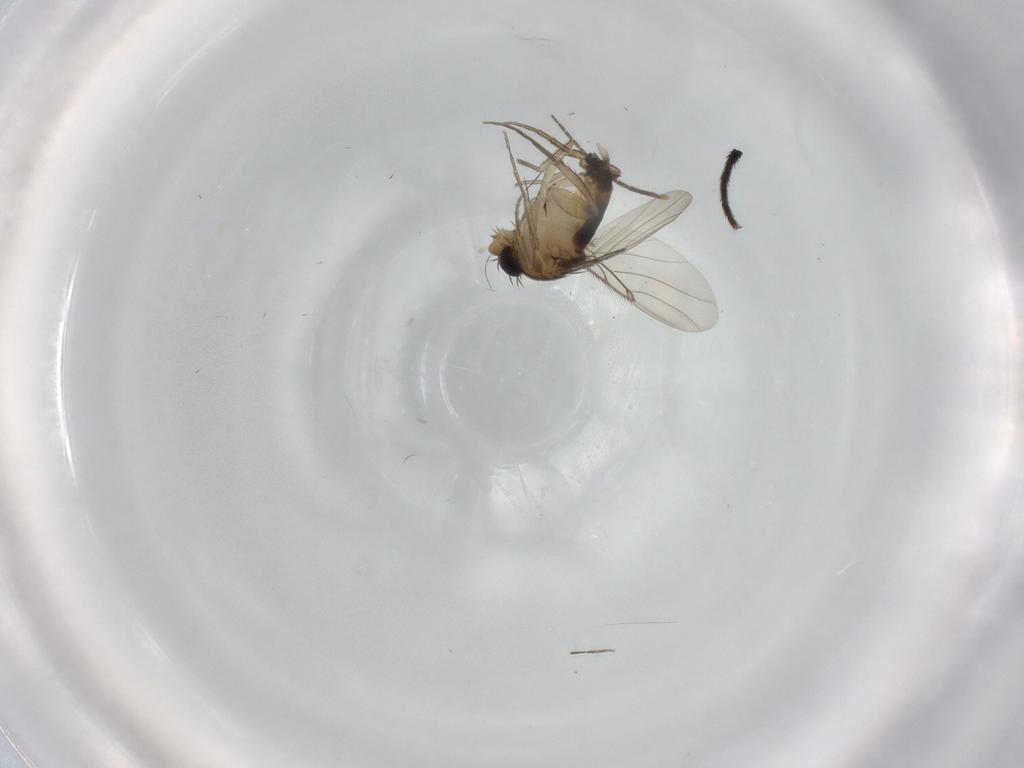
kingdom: Animalia
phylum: Arthropoda
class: Insecta
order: Diptera
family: Phoridae
